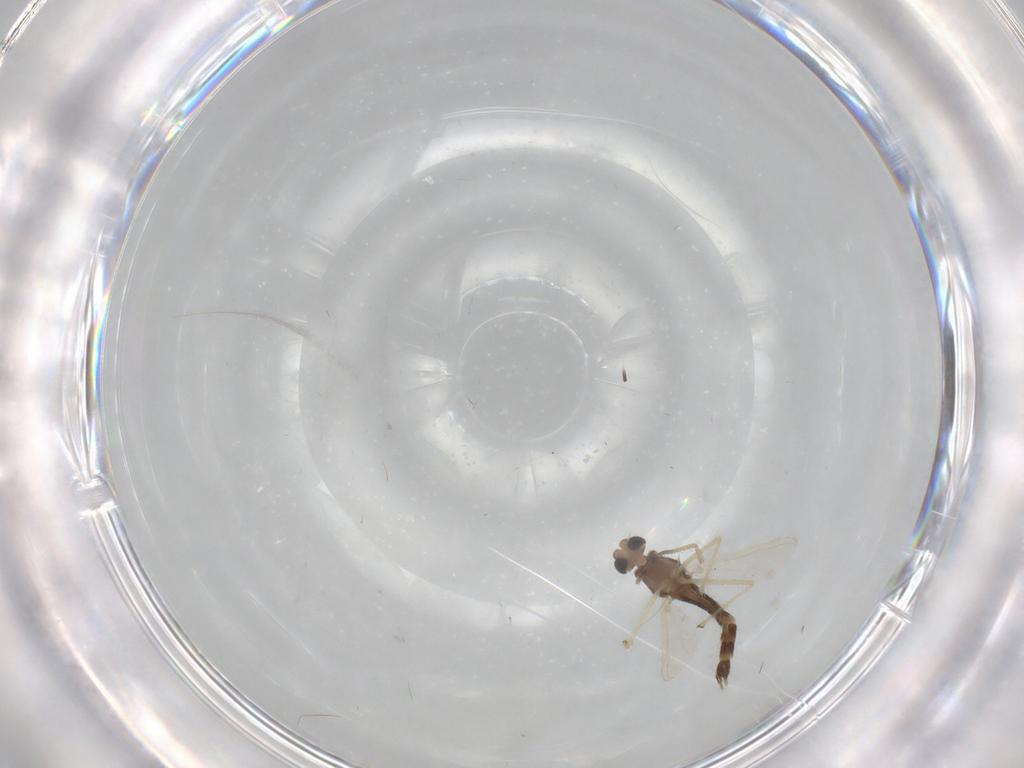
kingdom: Animalia
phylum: Arthropoda
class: Insecta
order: Diptera
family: Chironomidae
